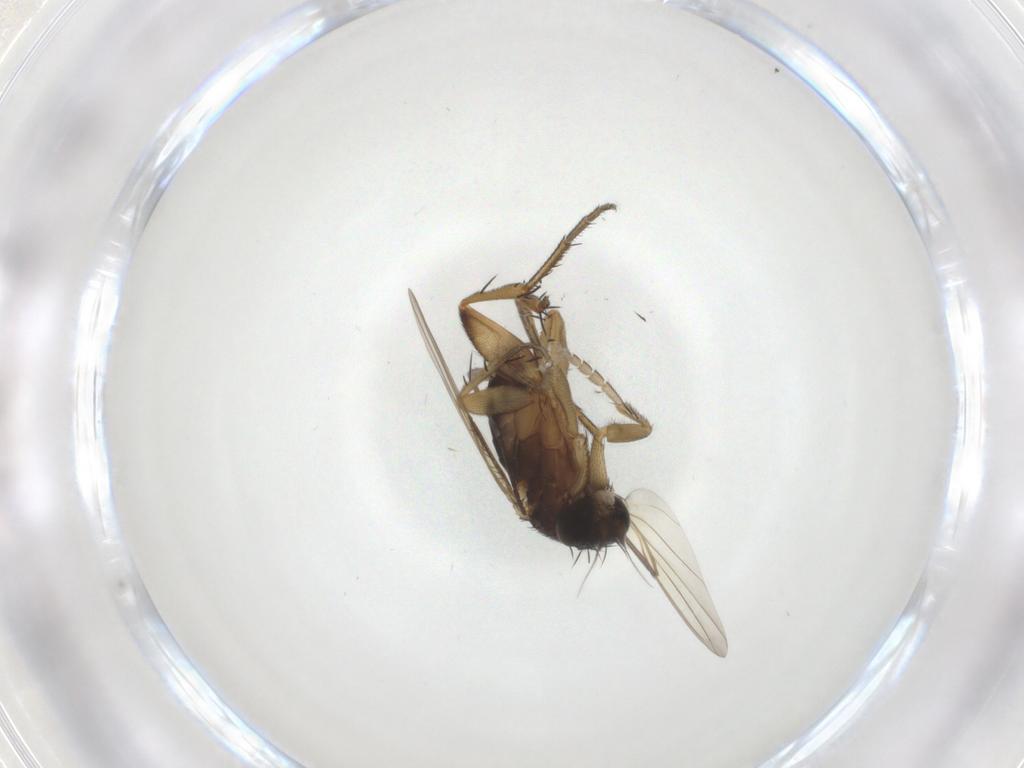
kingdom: Animalia
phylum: Arthropoda
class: Insecta
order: Diptera
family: Phoridae
